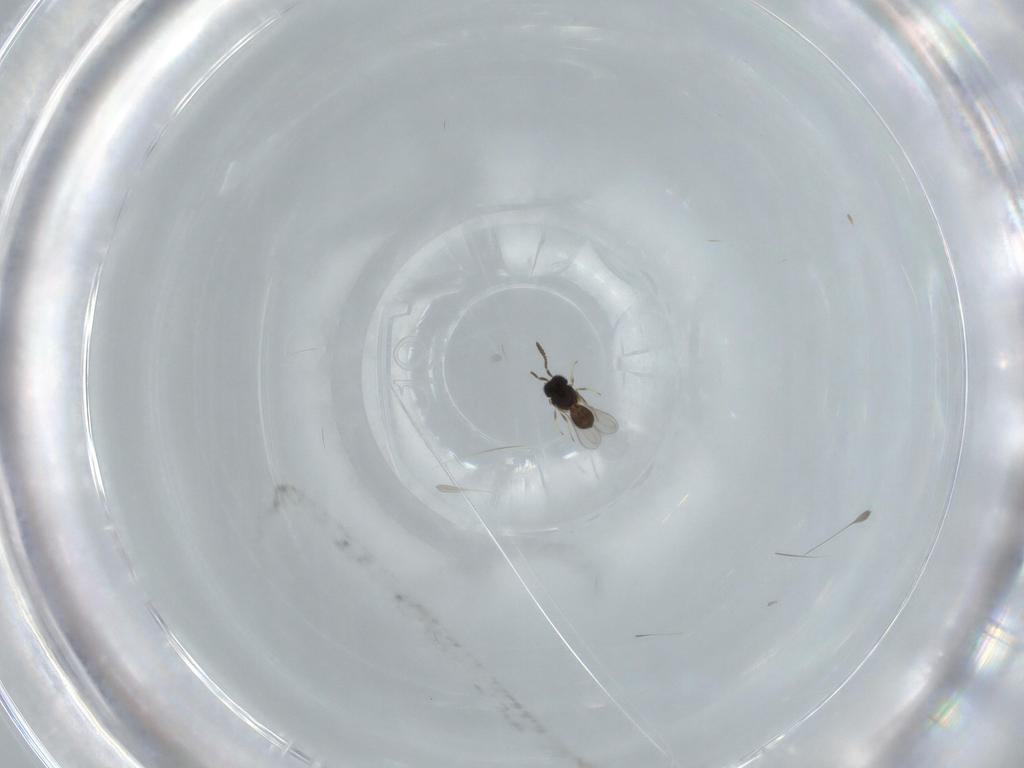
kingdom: Animalia
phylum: Arthropoda
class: Insecta
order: Hymenoptera
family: Scelionidae
